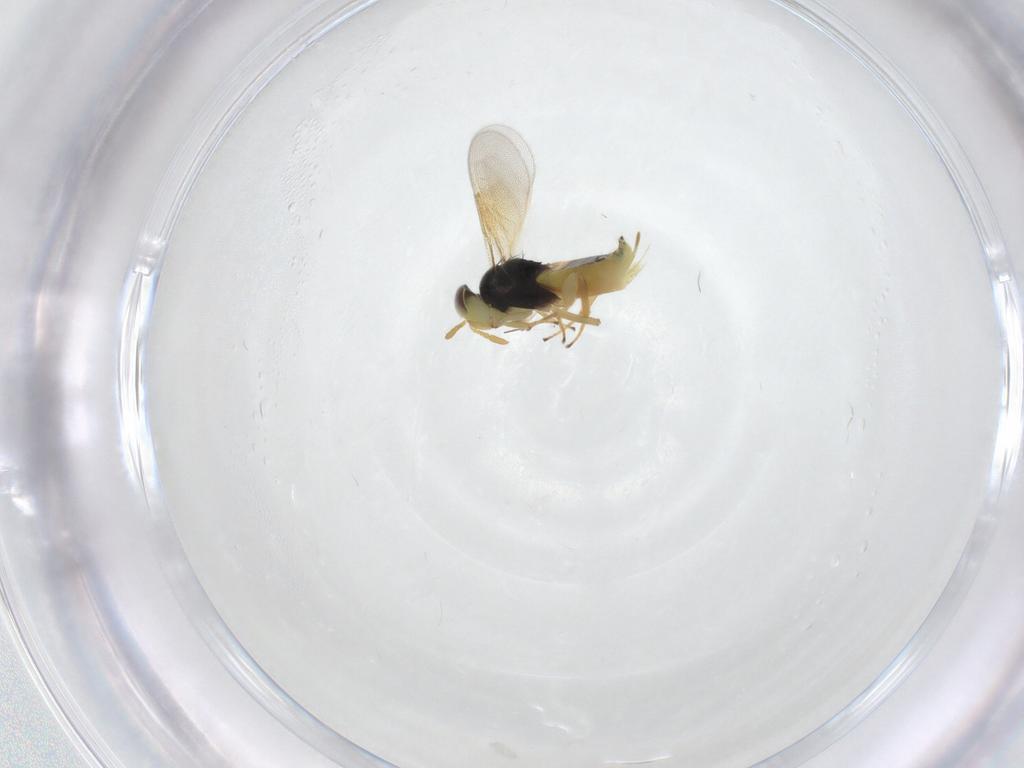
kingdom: Animalia
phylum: Arthropoda
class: Insecta
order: Hymenoptera
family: Aphelinidae
